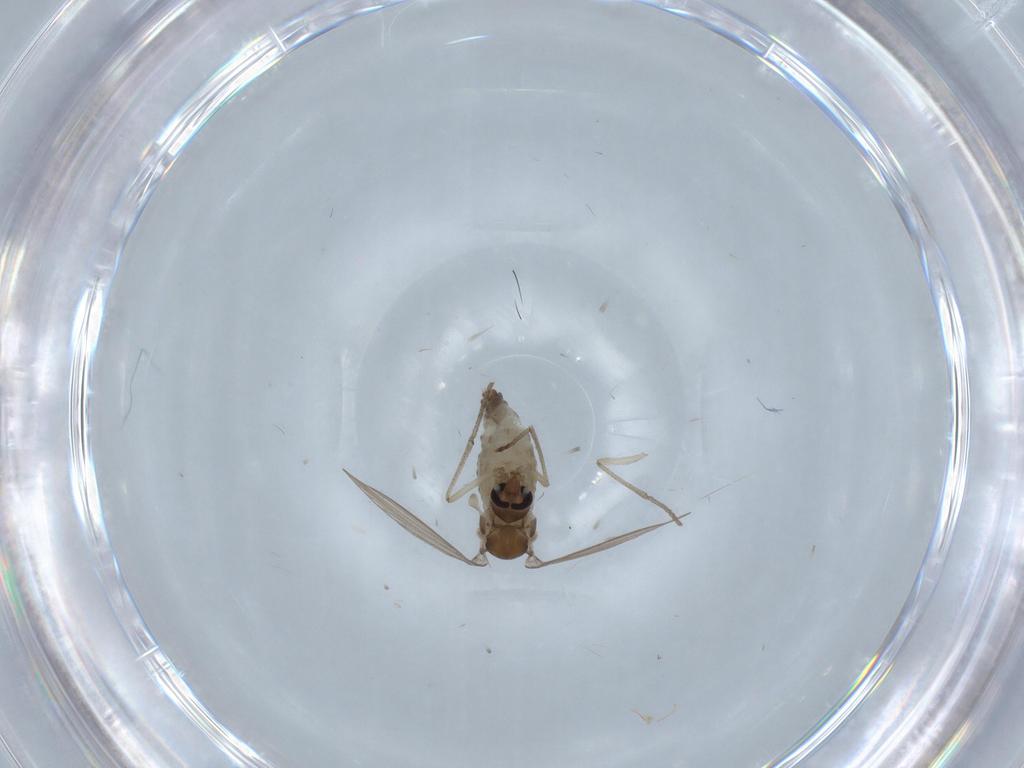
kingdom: Animalia
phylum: Arthropoda
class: Insecta
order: Diptera
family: Psychodidae
